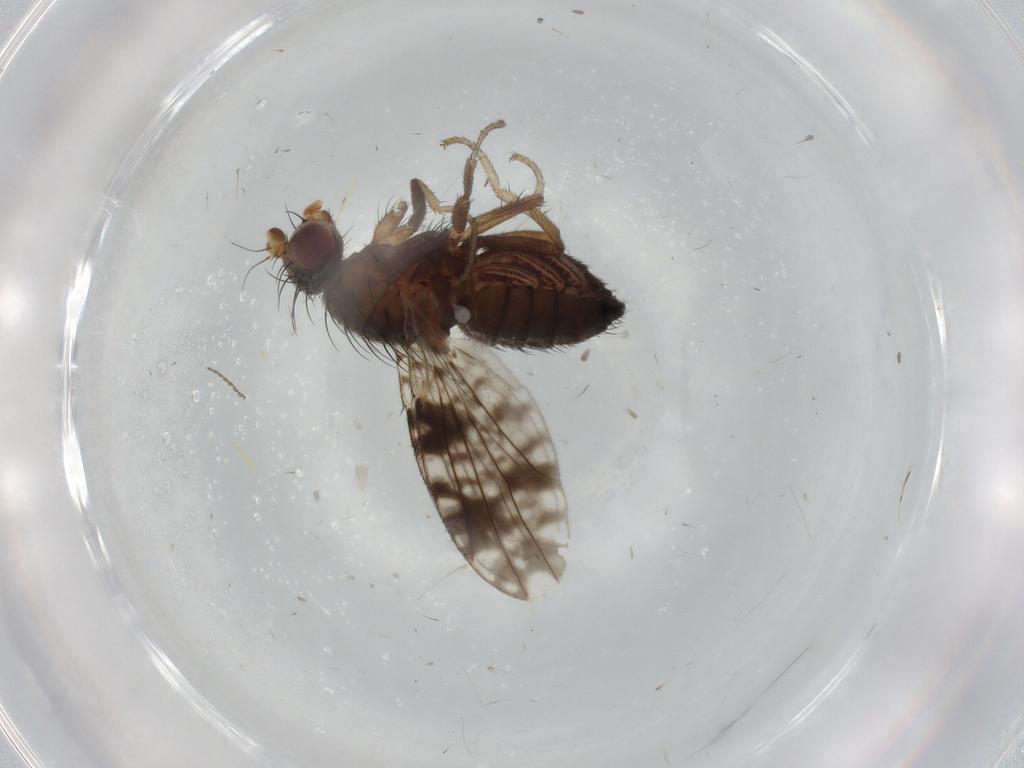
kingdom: Animalia
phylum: Arthropoda
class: Insecta
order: Diptera
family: Tephritidae
